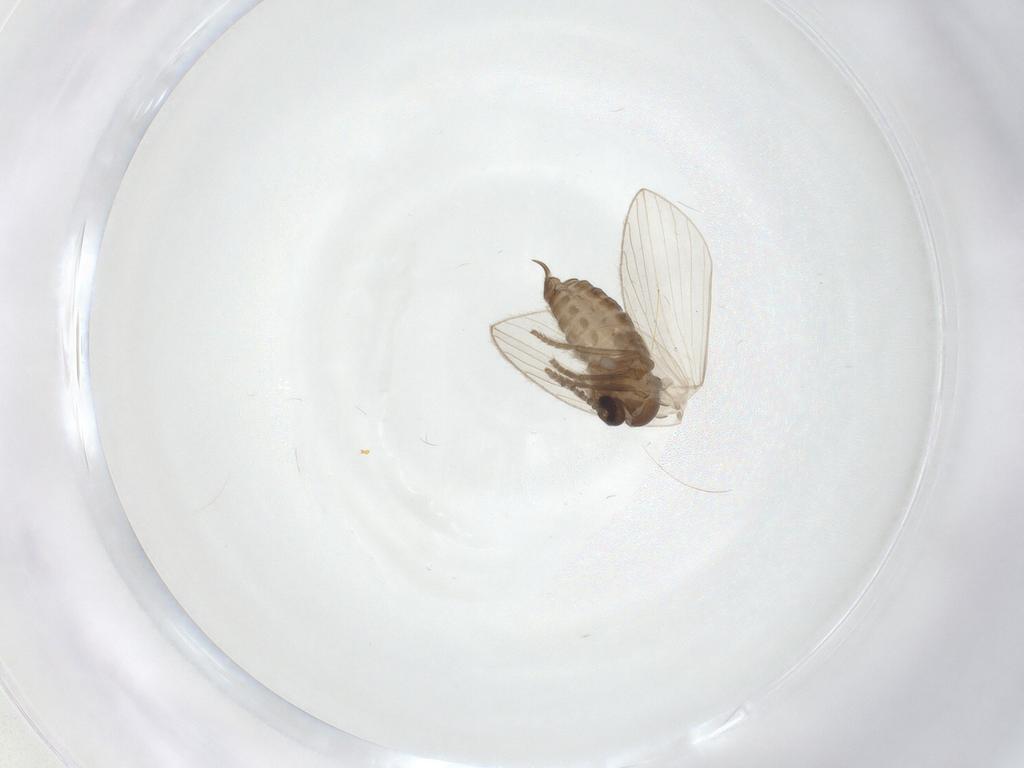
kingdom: Animalia
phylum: Arthropoda
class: Insecta
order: Diptera
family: Psychodidae
